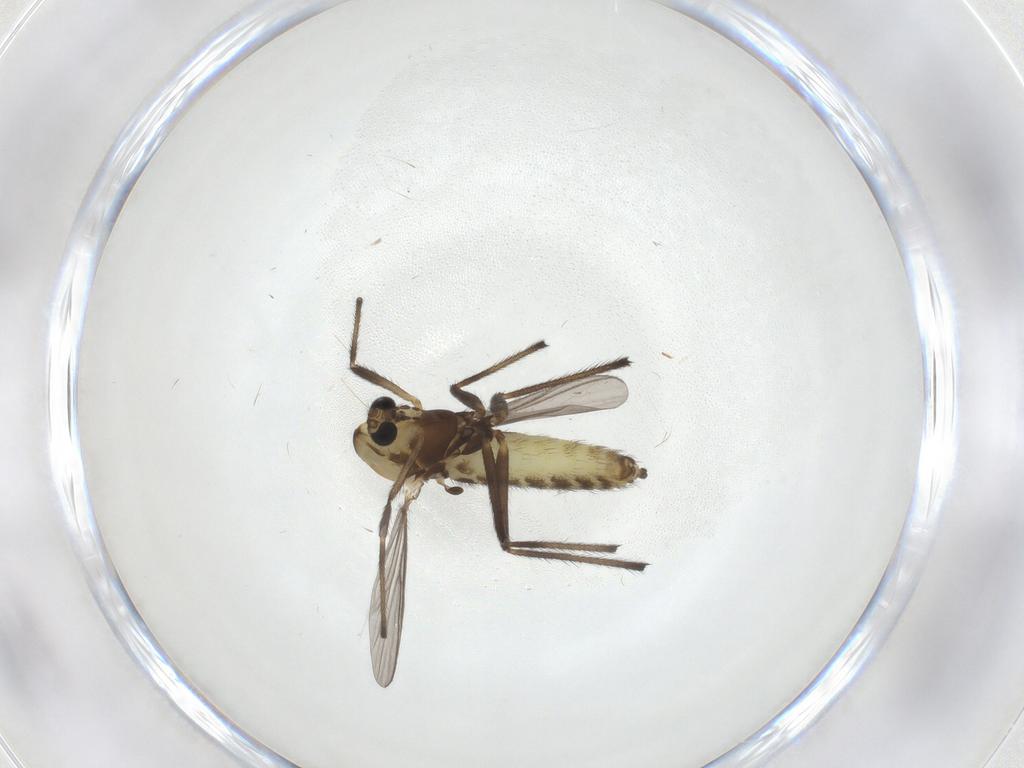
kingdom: Animalia
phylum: Arthropoda
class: Insecta
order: Diptera
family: Chironomidae
